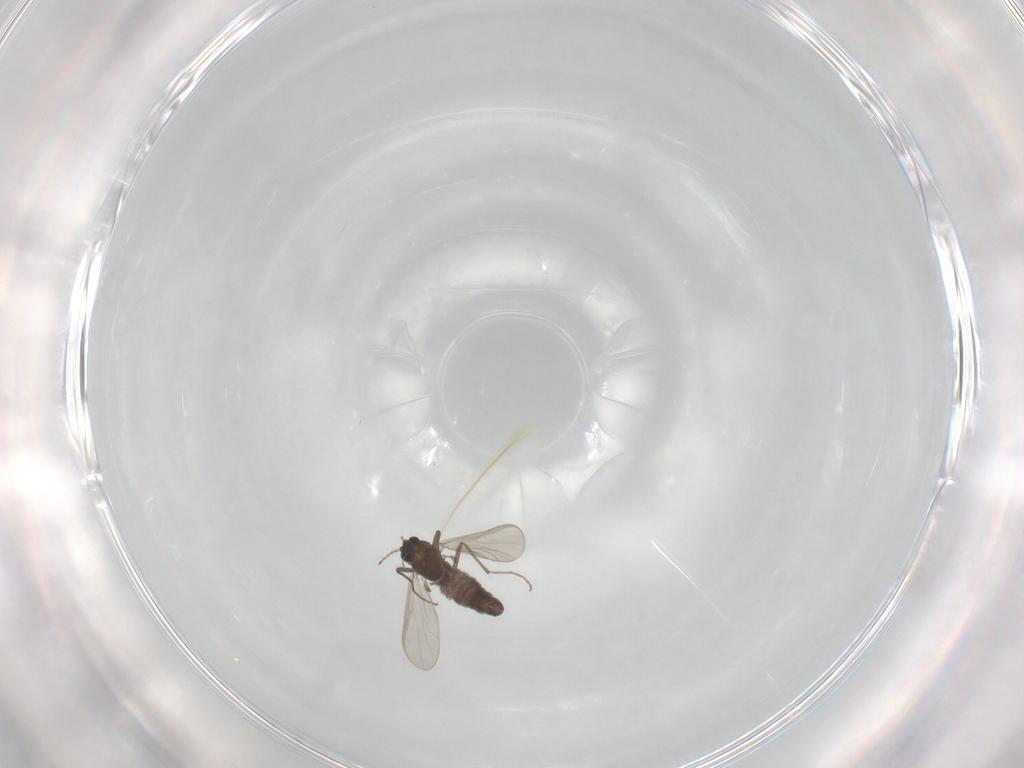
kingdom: Animalia
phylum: Arthropoda
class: Insecta
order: Diptera
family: Chironomidae
